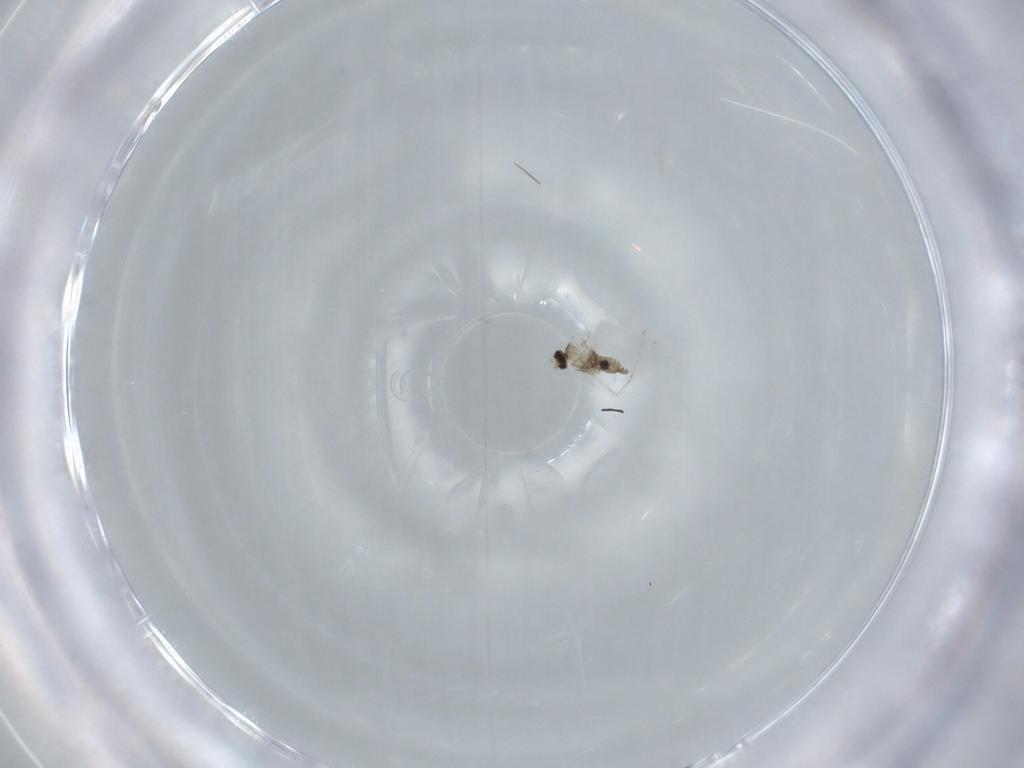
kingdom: Animalia
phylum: Arthropoda
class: Insecta
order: Diptera
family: Cecidomyiidae
